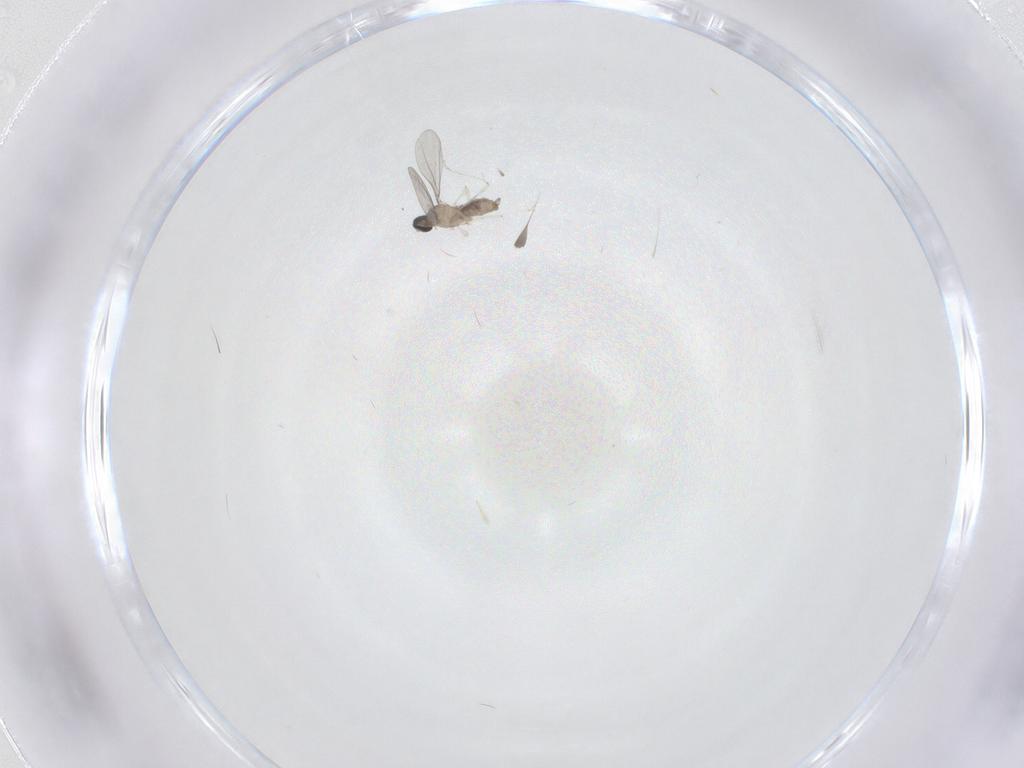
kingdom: Animalia
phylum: Arthropoda
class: Insecta
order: Diptera
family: Cecidomyiidae
